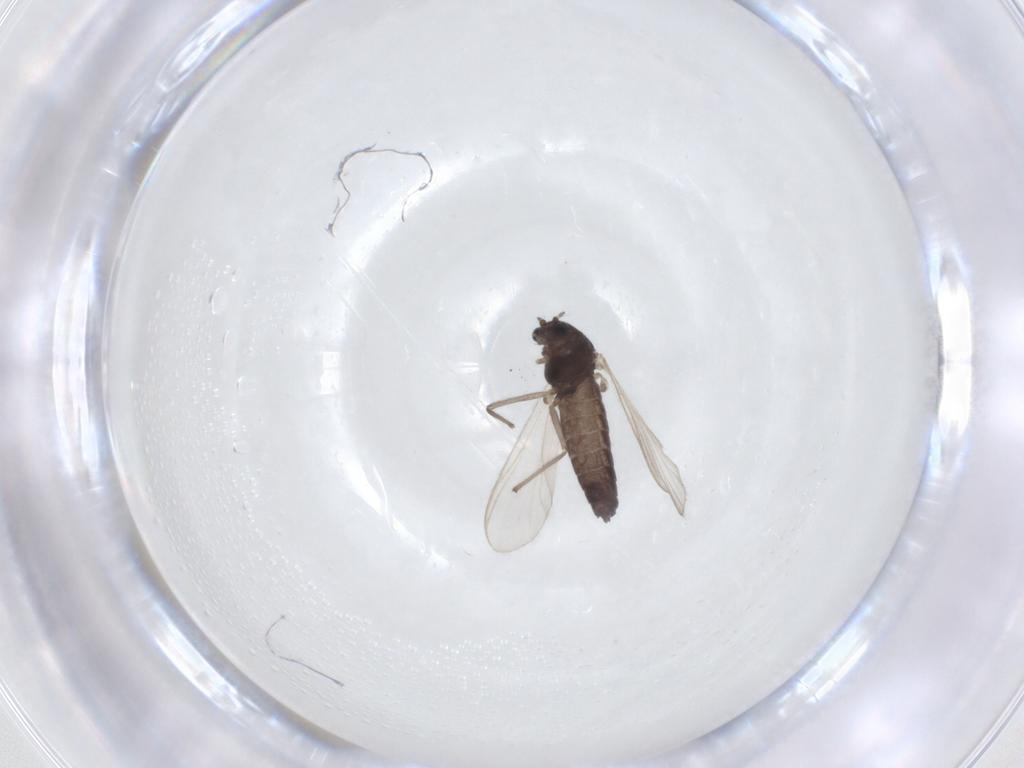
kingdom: Animalia
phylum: Arthropoda
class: Insecta
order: Diptera
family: Chironomidae
